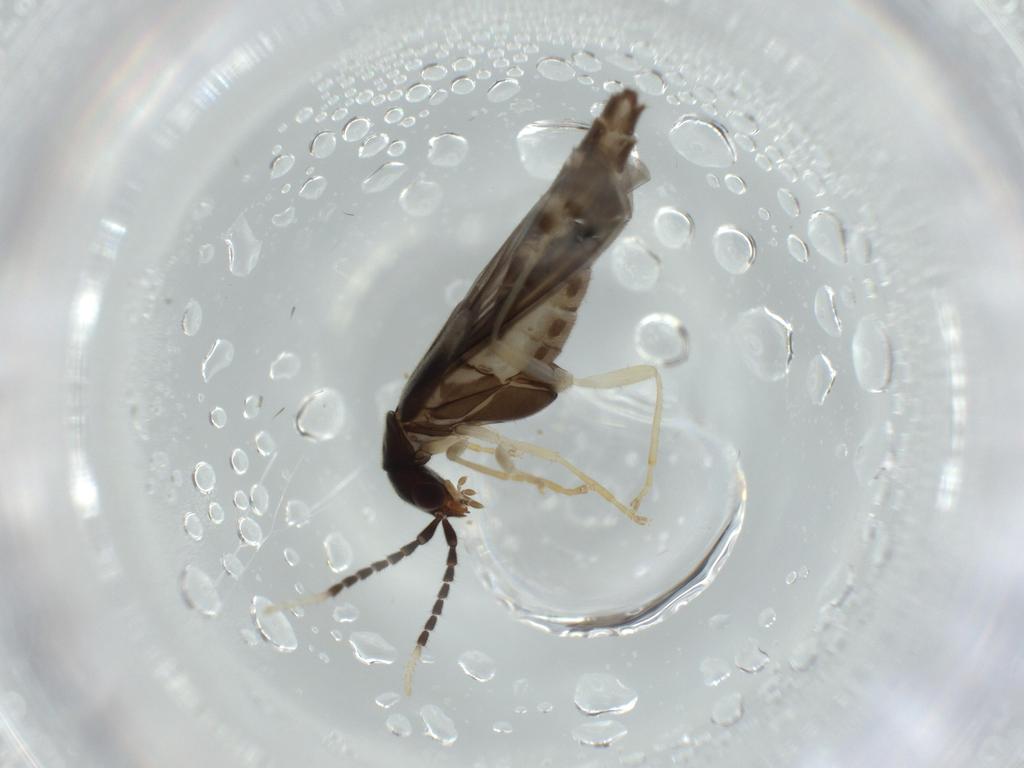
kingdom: Animalia
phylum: Arthropoda
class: Insecta
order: Coleoptera
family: Cantharidae
